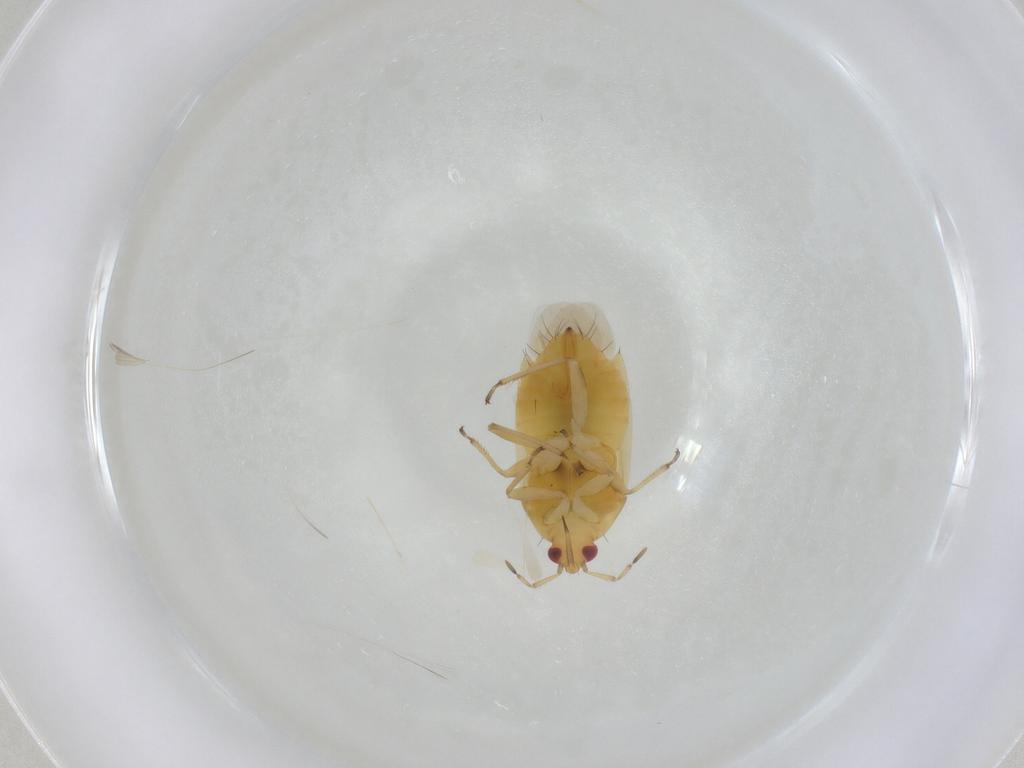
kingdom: Animalia
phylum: Arthropoda
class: Insecta
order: Hemiptera
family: Anthocoridae
